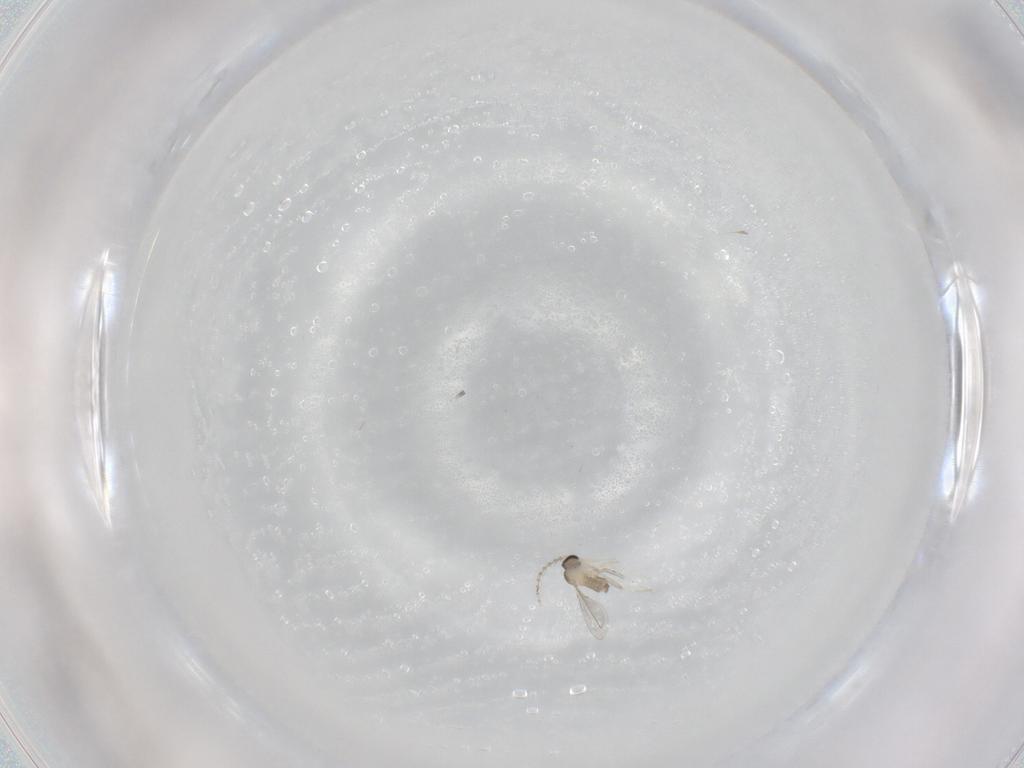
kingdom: Animalia
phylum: Arthropoda
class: Insecta
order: Diptera
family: Cecidomyiidae
